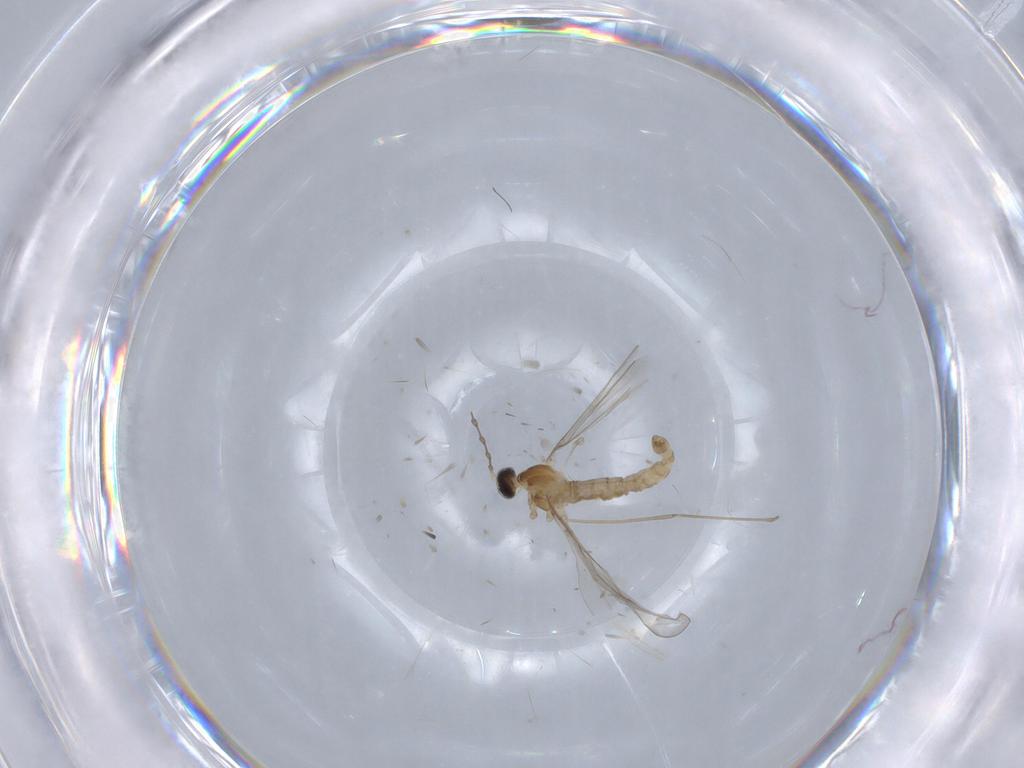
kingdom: Animalia
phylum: Arthropoda
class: Insecta
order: Diptera
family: Cecidomyiidae
